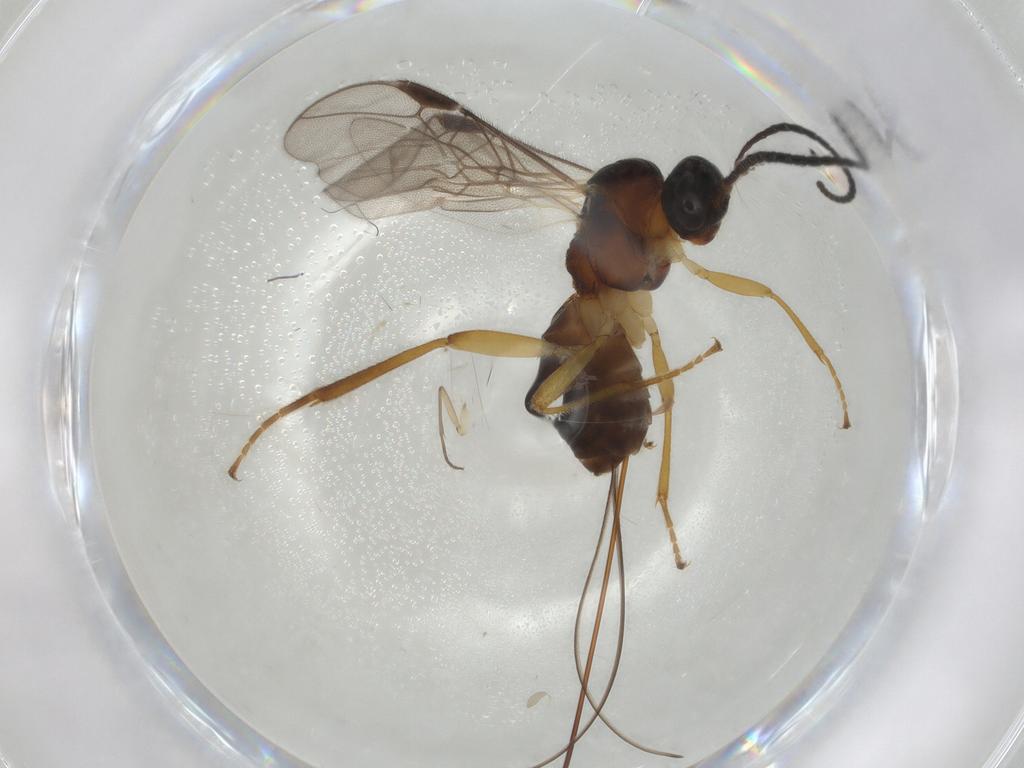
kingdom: Animalia
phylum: Arthropoda
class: Insecta
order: Hymenoptera
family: Braconidae
